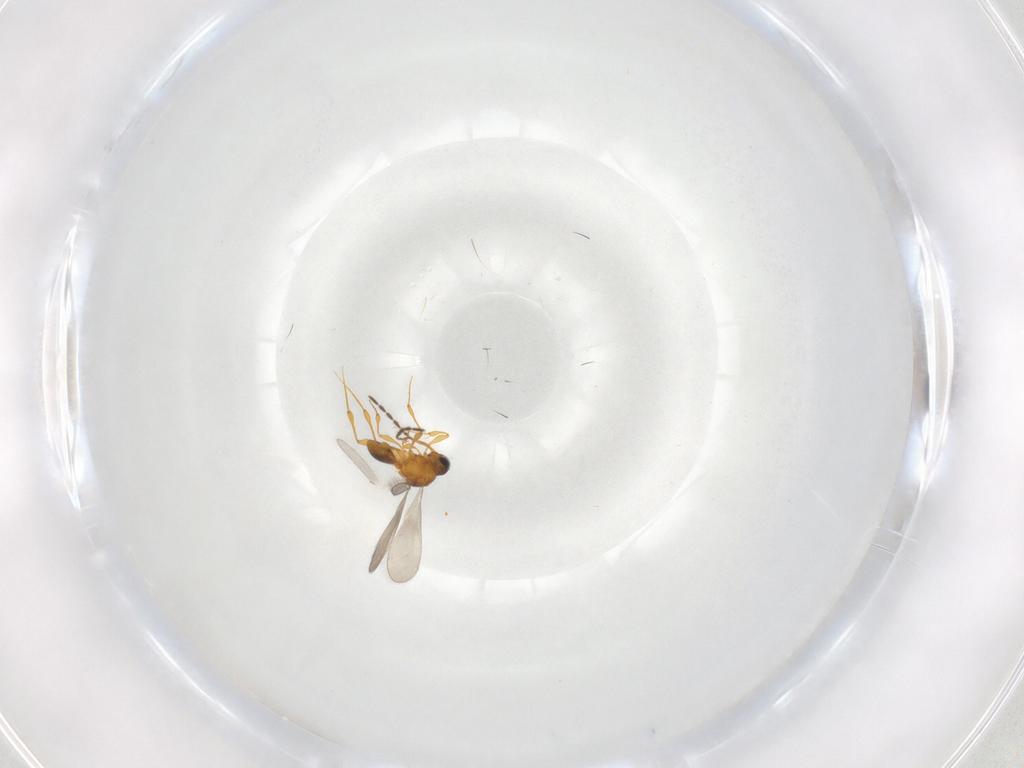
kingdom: Animalia
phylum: Arthropoda
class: Insecta
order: Hymenoptera
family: Platygastridae
